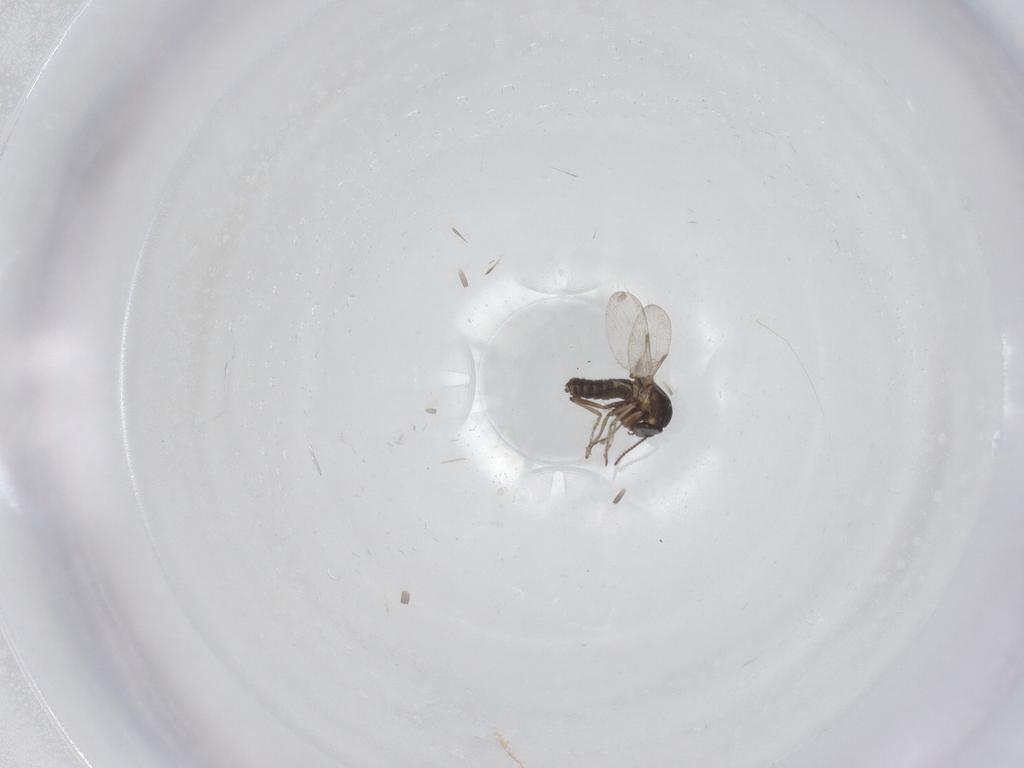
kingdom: Animalia
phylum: Arthropoda
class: Insecta
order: Diptera
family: Ceratopogonidae
